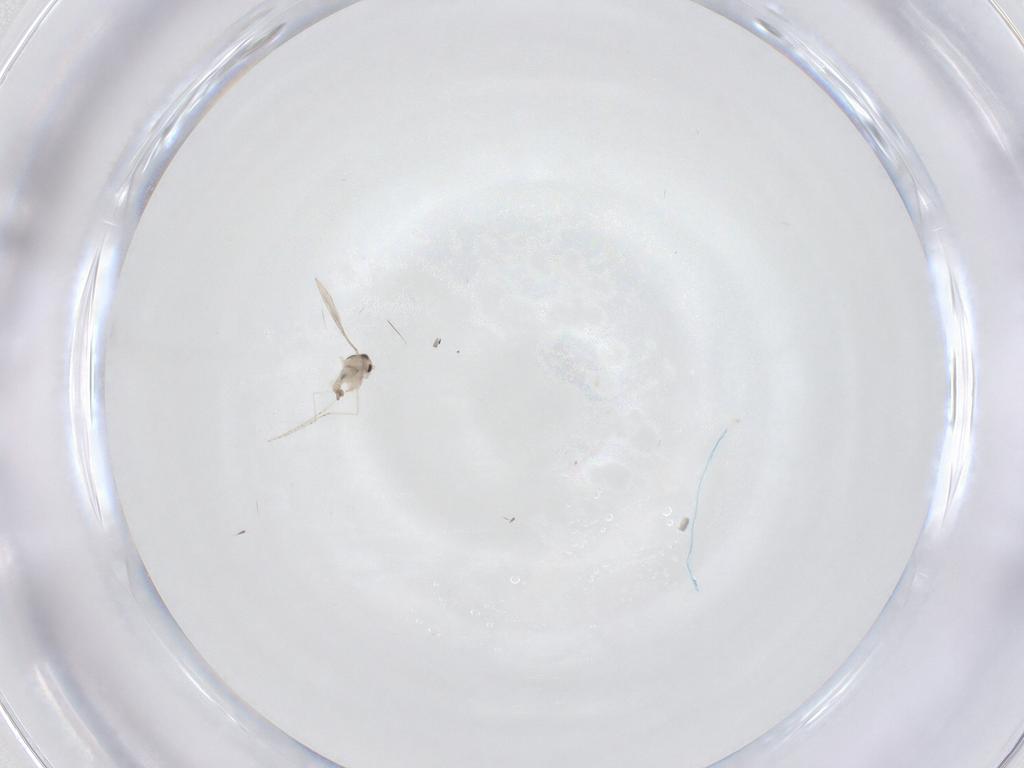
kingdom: Animalia
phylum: Arthropoda
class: Insecta
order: Diptera
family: Cecidomyiidae
